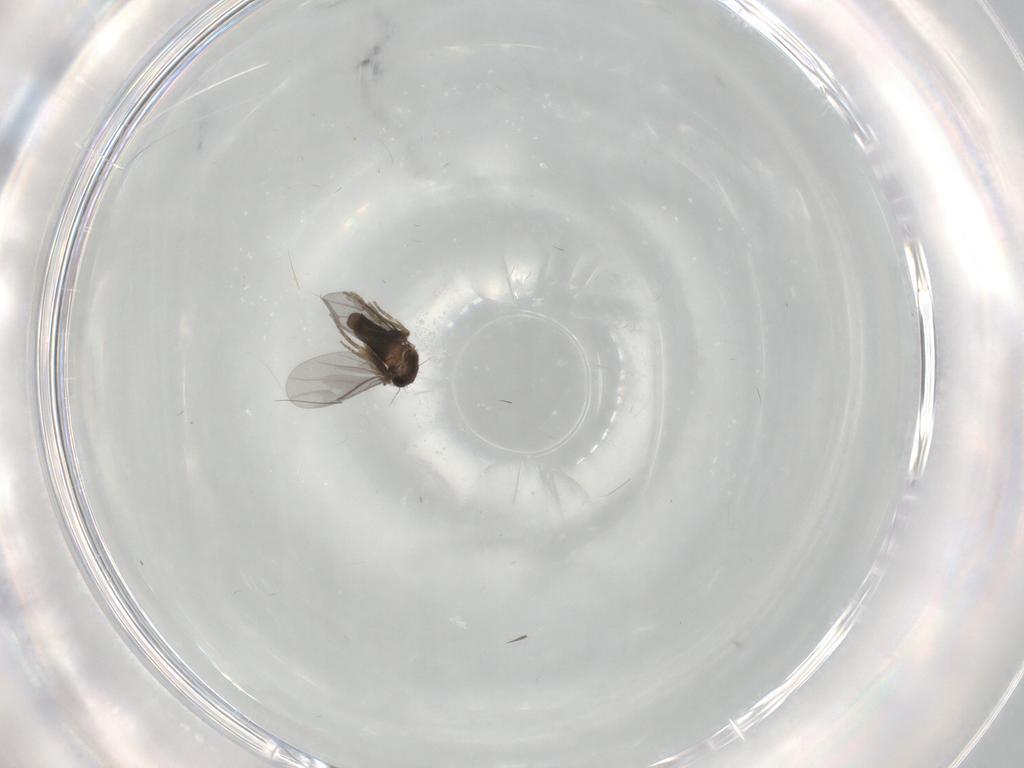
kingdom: Animalia
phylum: Arthropoda
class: Insecta
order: Diptera
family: Chironomidae
